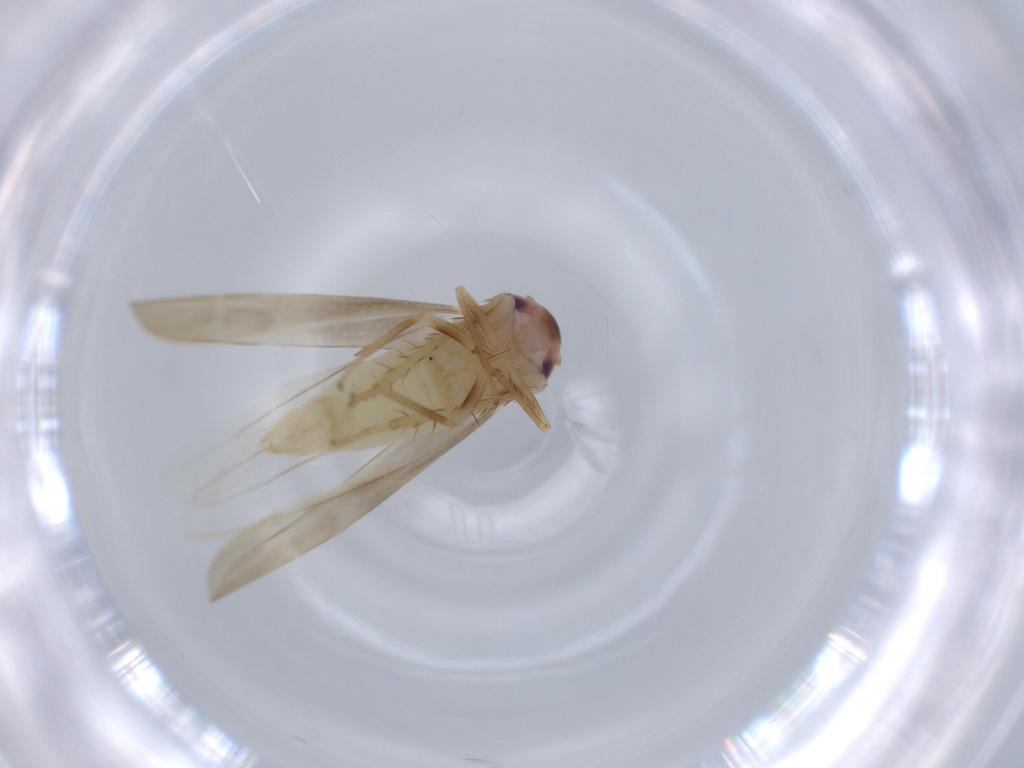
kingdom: Animalia
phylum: Arthropoda
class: Insecta
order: Hemiptera
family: Cicadellidae
